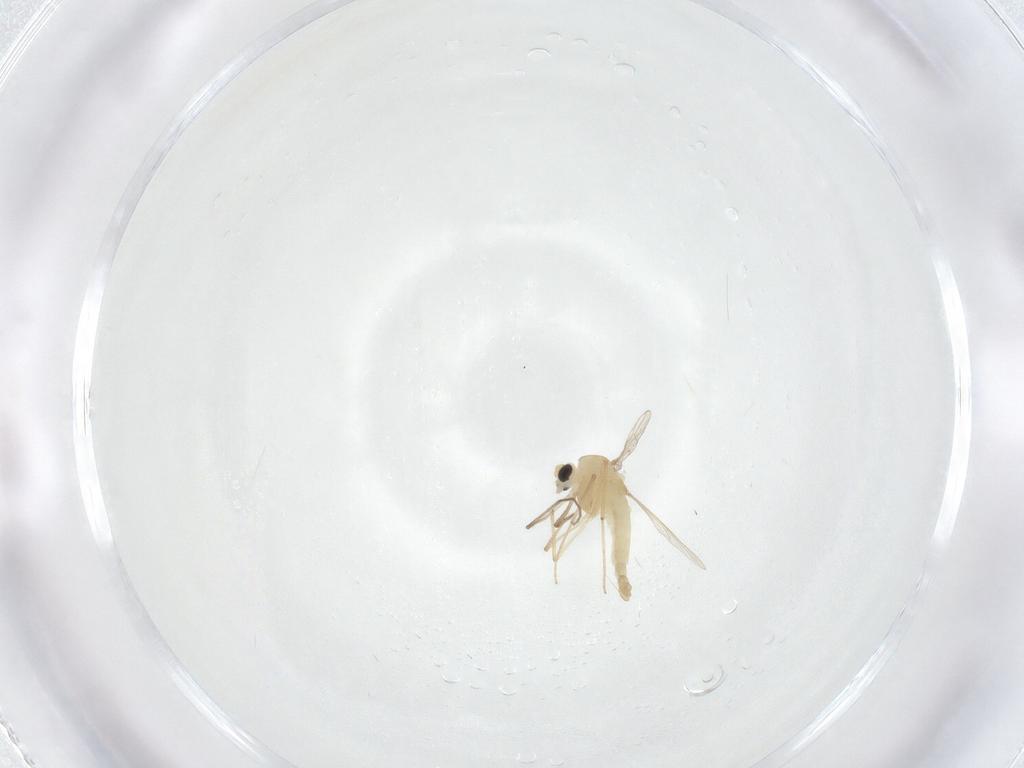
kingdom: Animalia
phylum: Arthropoda
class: Insecta
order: Diptera
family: Chironomidae
